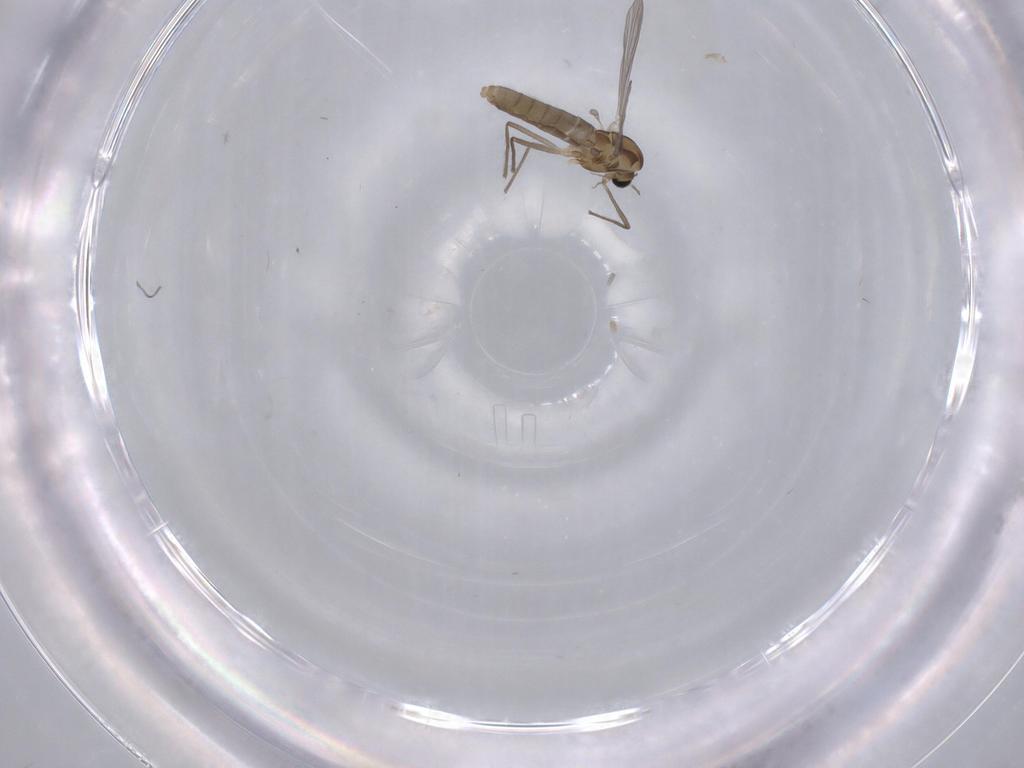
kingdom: Animalia
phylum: Arthropoda
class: Insecta
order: Diptera
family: Chironomidae
